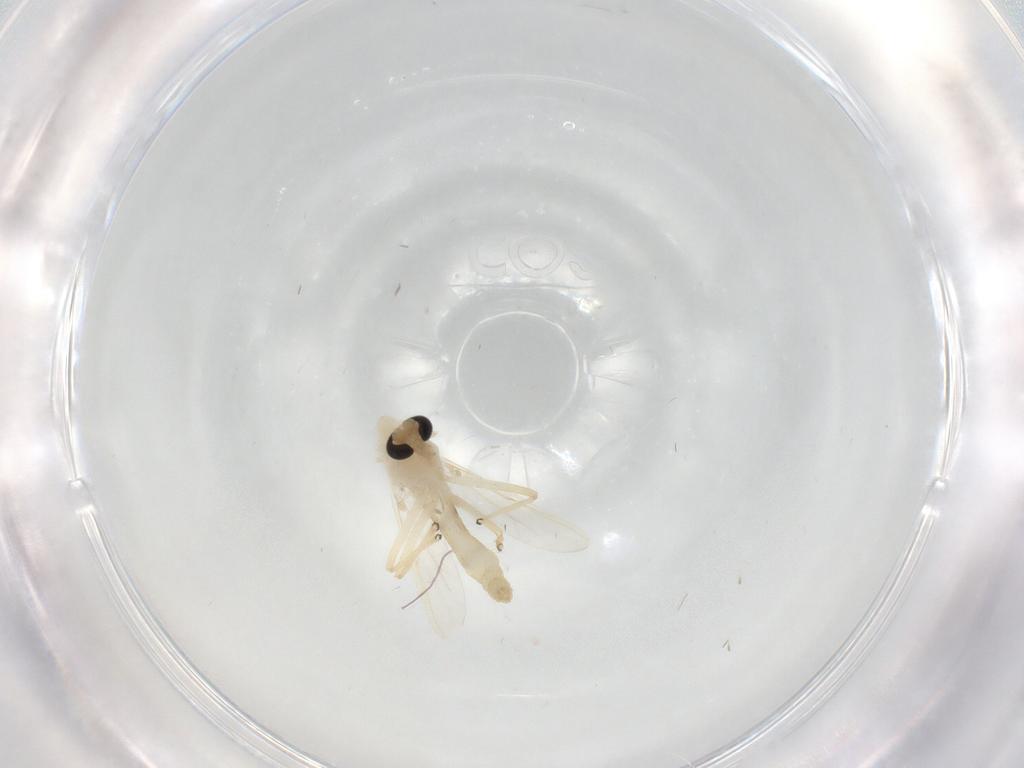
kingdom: Animalia
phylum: Arthropoda
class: Insecta
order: Diptera
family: Chironomidae
